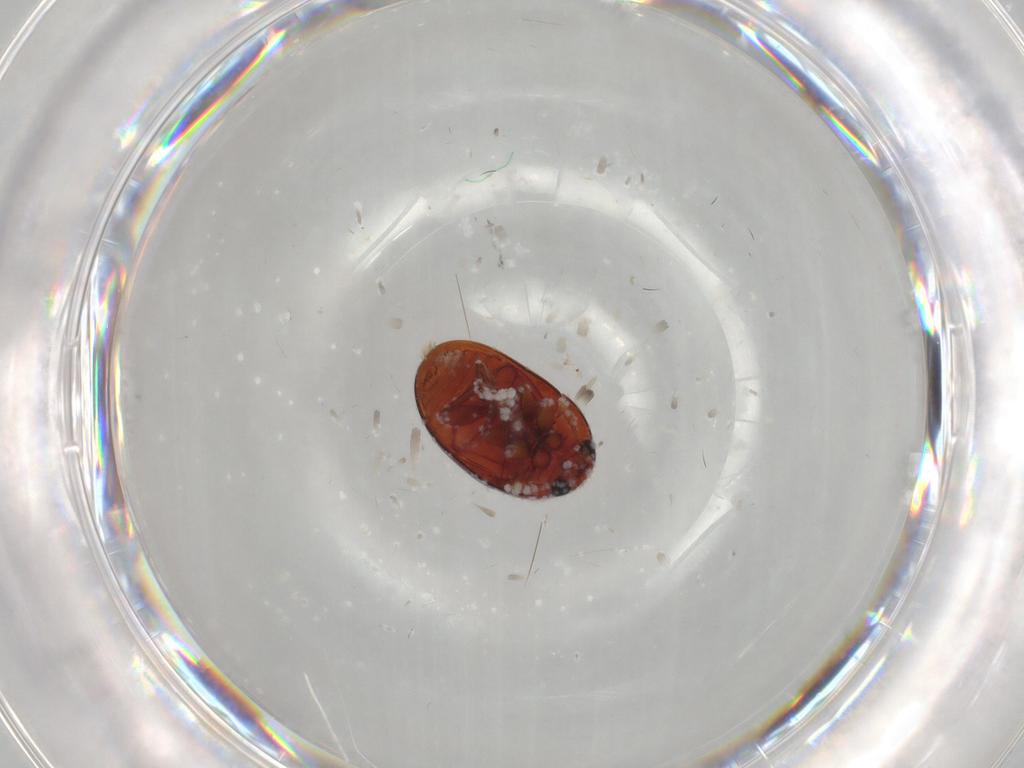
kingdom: Animalia
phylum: Arthropoda
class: Insecta
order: Coleoptera
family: Phalacridae
